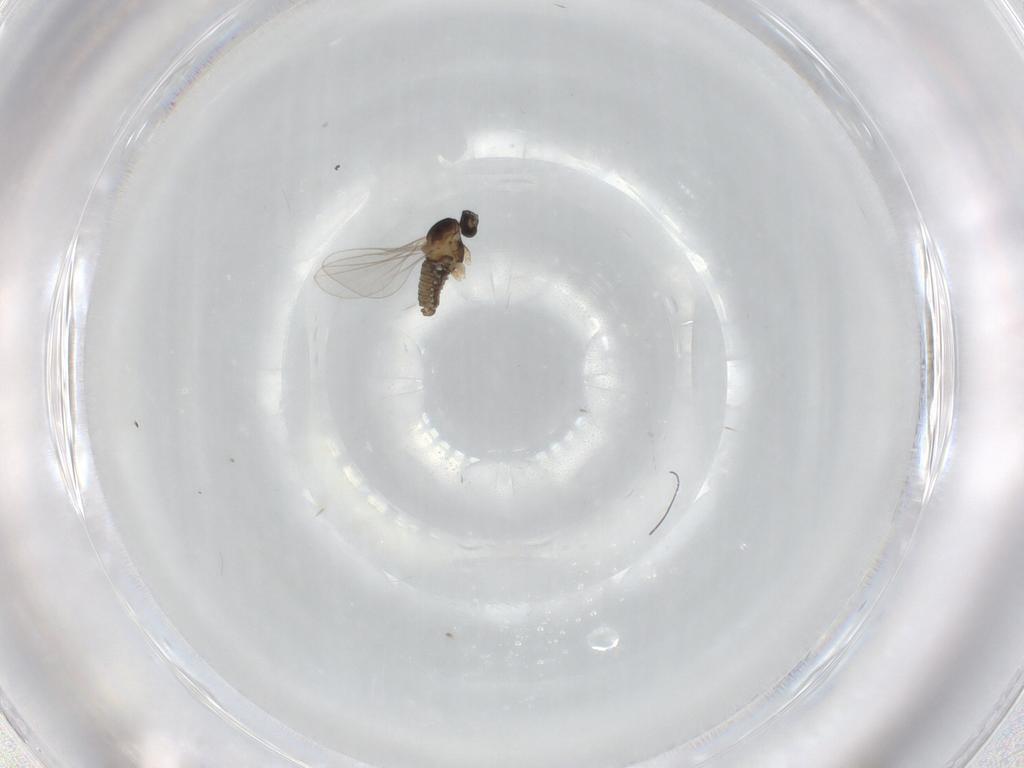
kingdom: Animalia
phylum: Arthropoda
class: Insecta
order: Diptera
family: Cecidomyiidae
